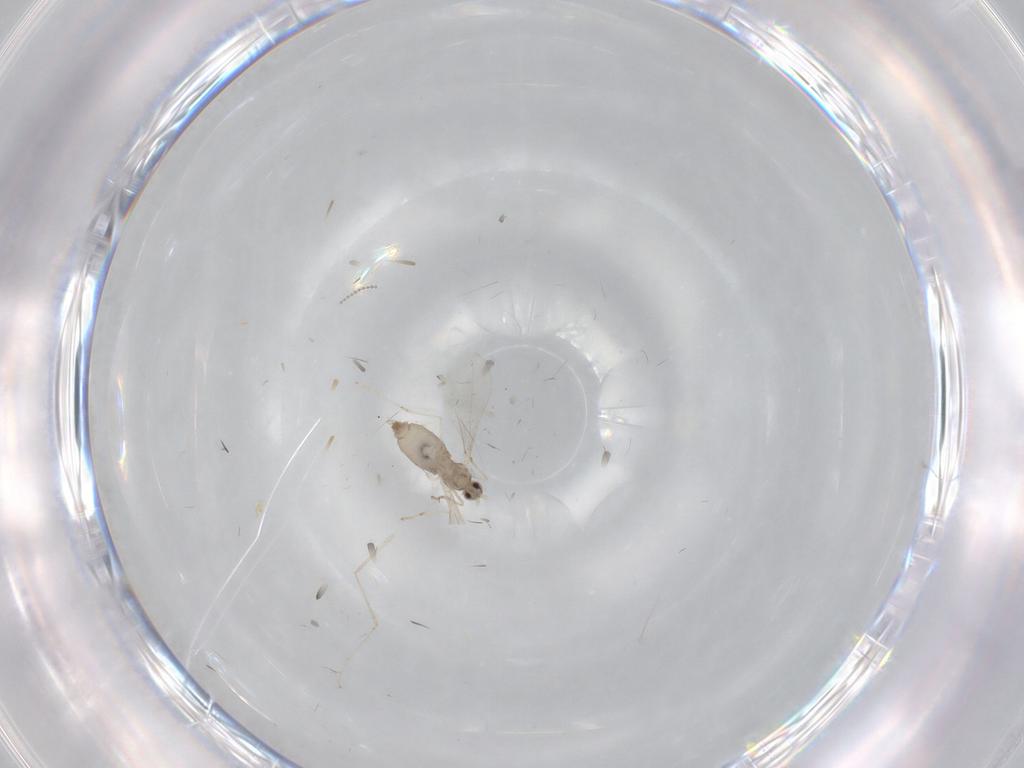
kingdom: Animalia
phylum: Arthropoda
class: Insecta
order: Diptera
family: Cecidomyiidae
